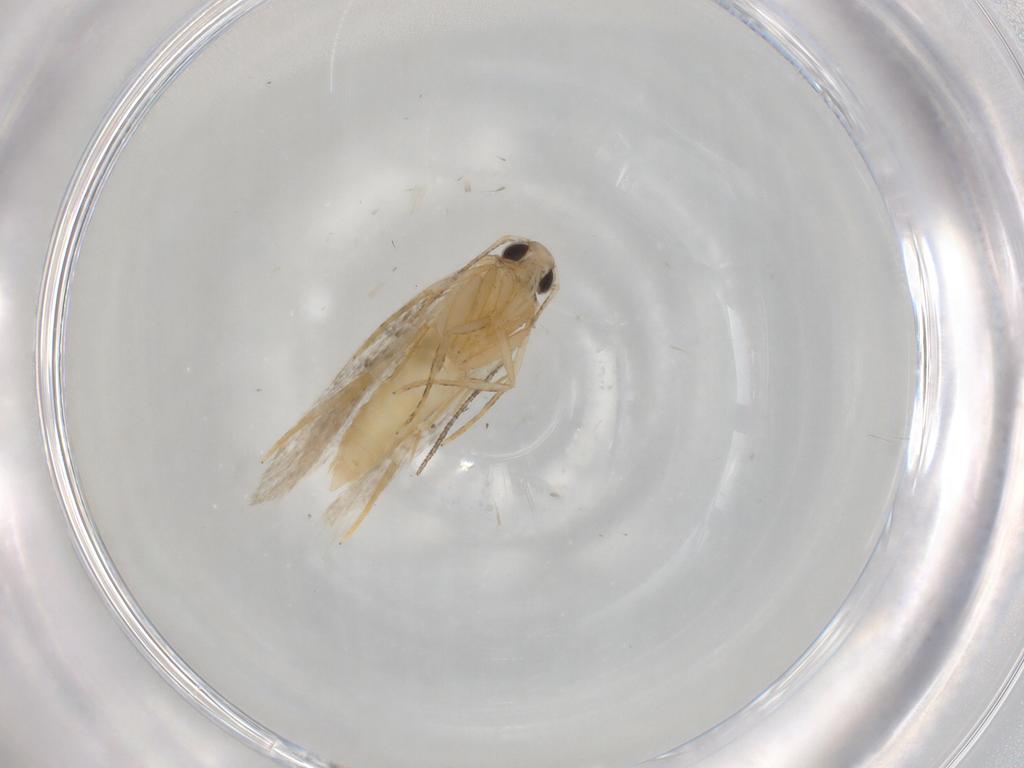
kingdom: Animalia
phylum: Arthropoda
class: Insecta
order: Lepidoptera
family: Autostichidae
